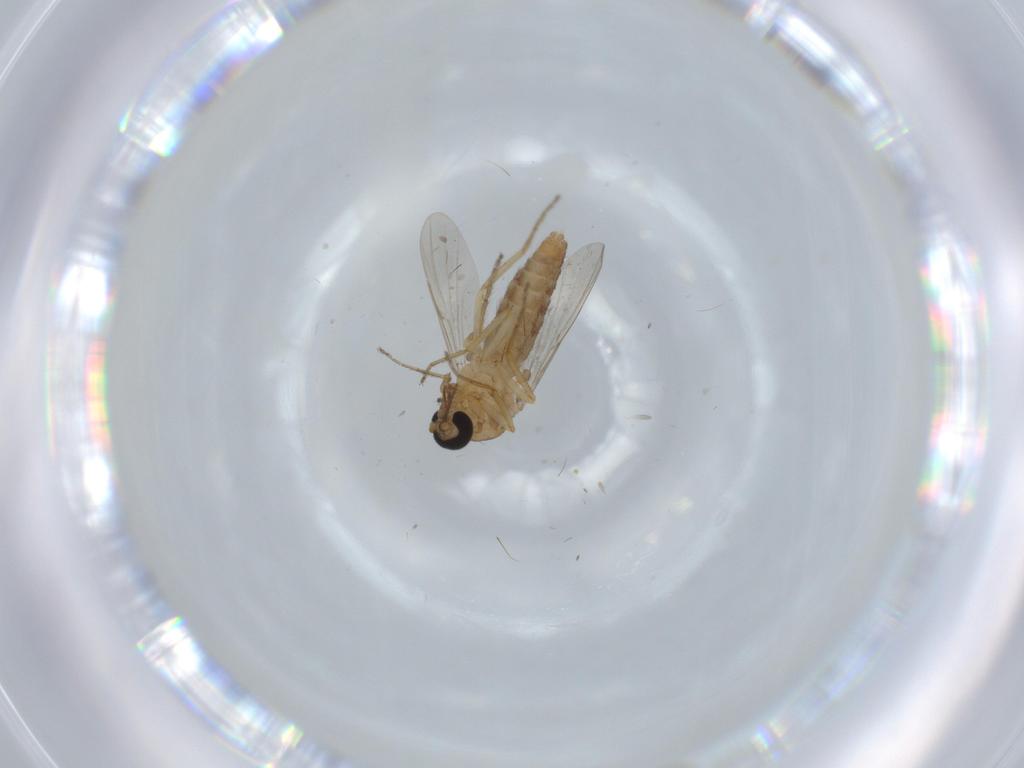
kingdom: Animalia
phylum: Arthropoda
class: Insecta
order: Diptera
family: Ceratopogonidae
